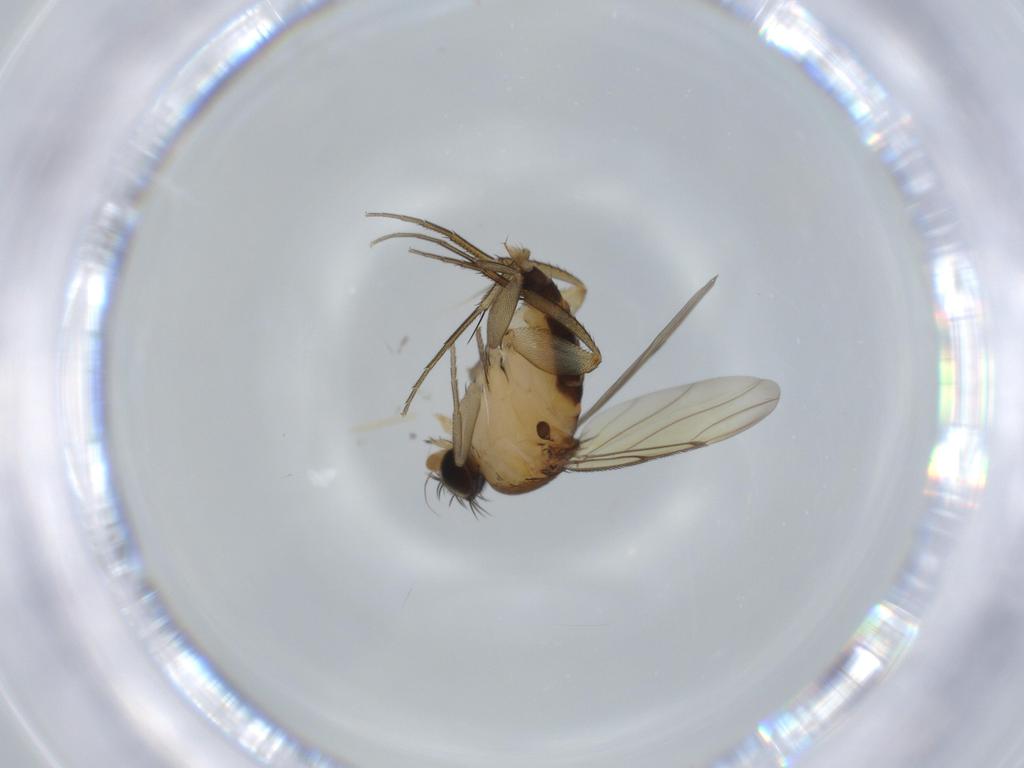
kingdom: Animalia
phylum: Arthropoda
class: Insecta
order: Diptera
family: Phoridae
